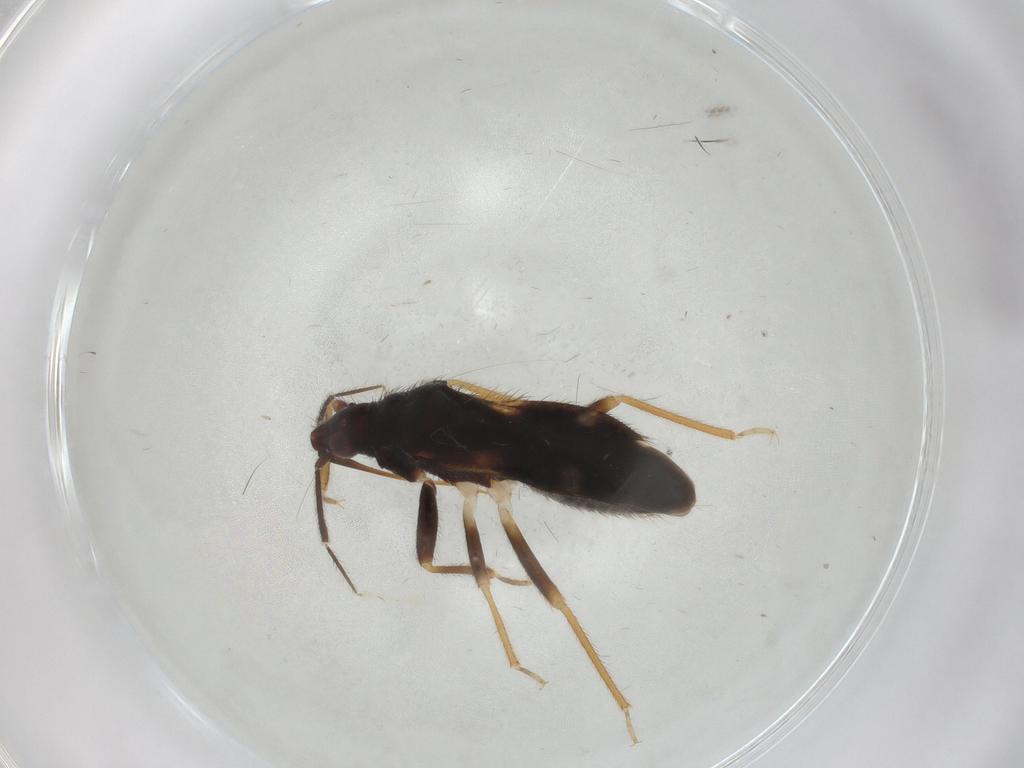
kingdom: Animalia
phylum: Arthropoda
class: Insecta
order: Hemiptera
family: Anthocoridae
